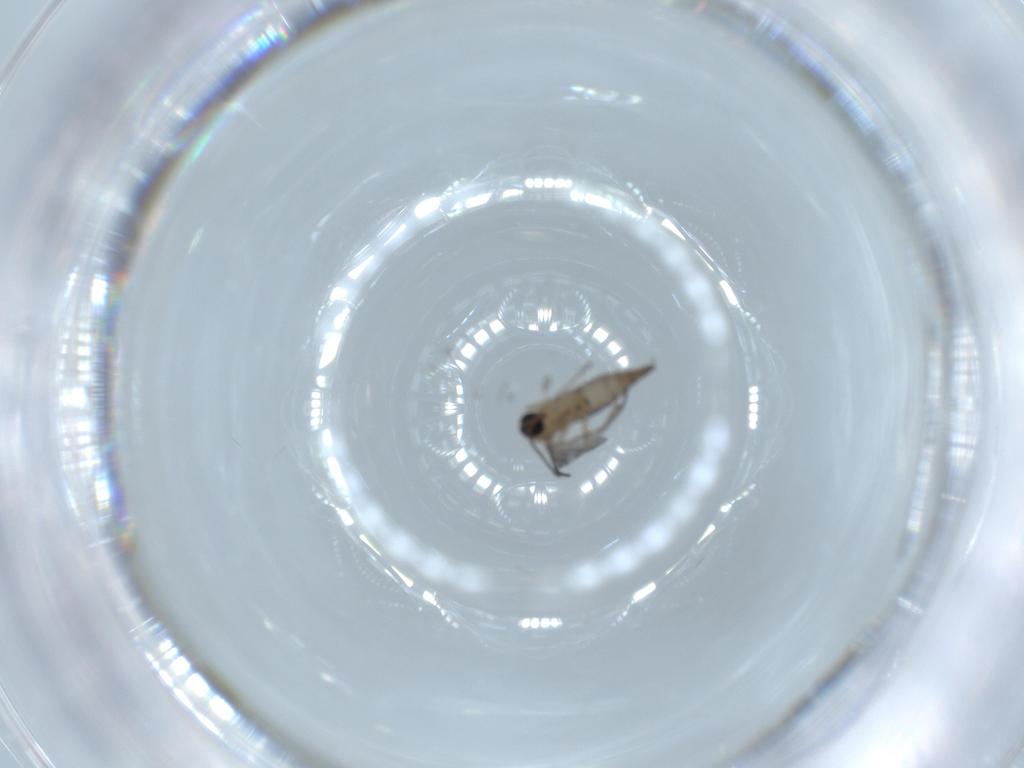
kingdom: Animalia
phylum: Arthropoda
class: Insecta
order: Diptera
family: Sciaridae
